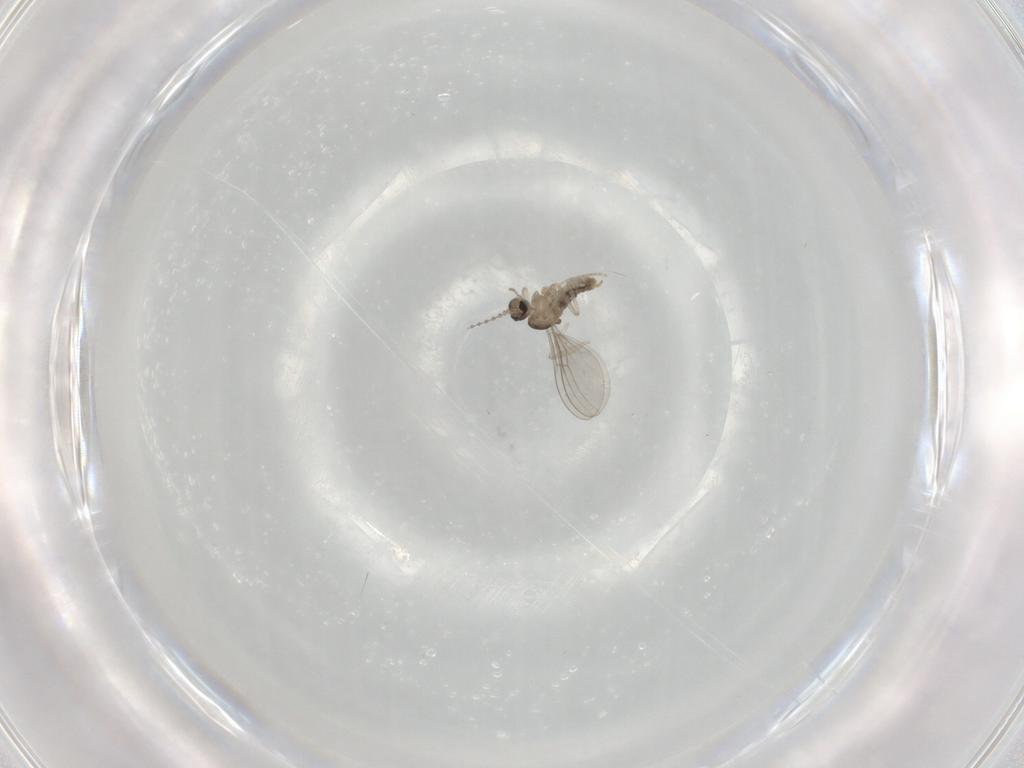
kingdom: Animalia
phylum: Arthropoda
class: Insecta
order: Diptera
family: Cecidomyiidae
